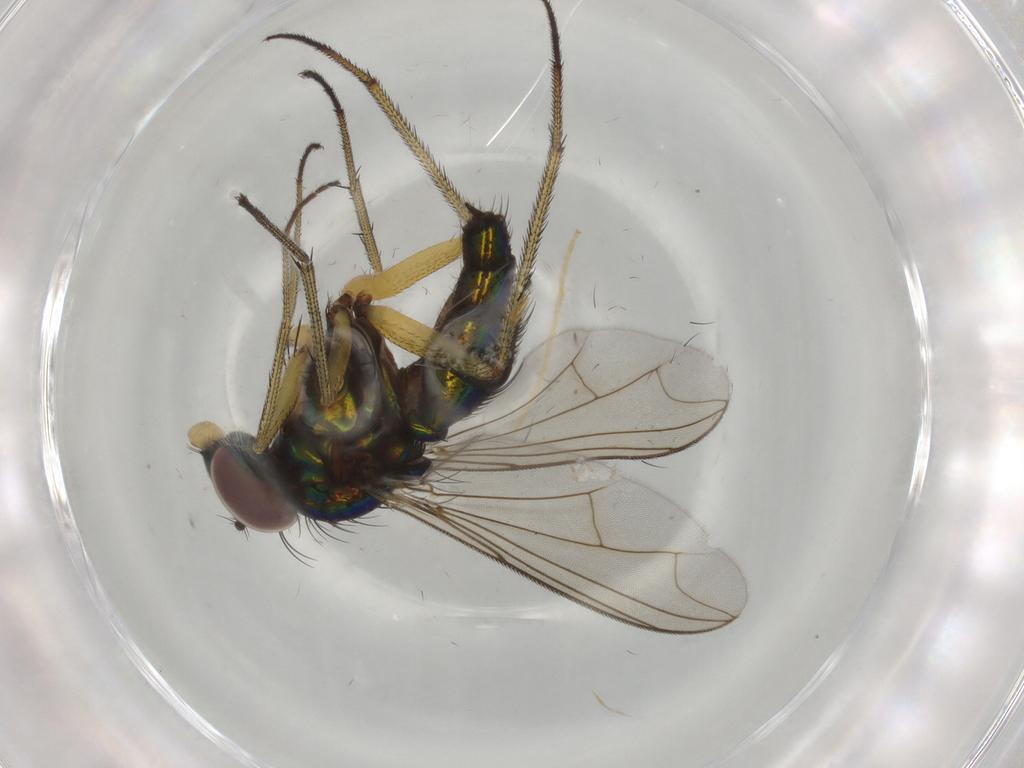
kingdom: Animalia
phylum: Arthropoda
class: Insecta
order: Diptera
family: Dolichopodidae
